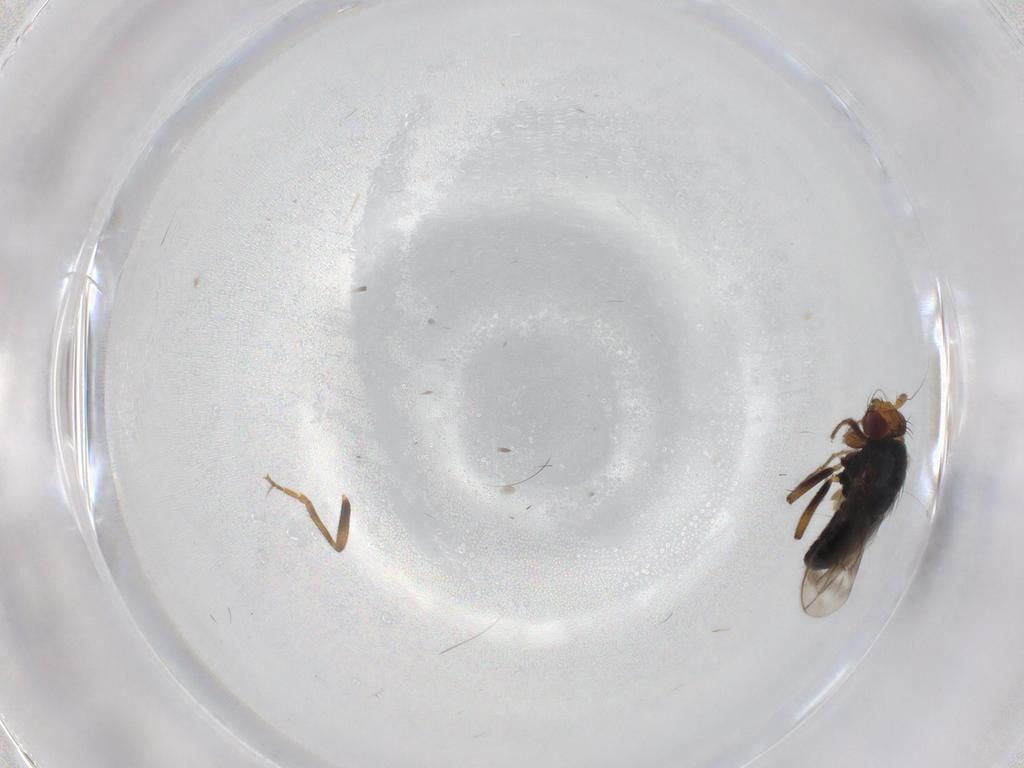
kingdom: Animalia
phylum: Arthropoda
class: Insecta
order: Diptera
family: Sphaeroceridae
